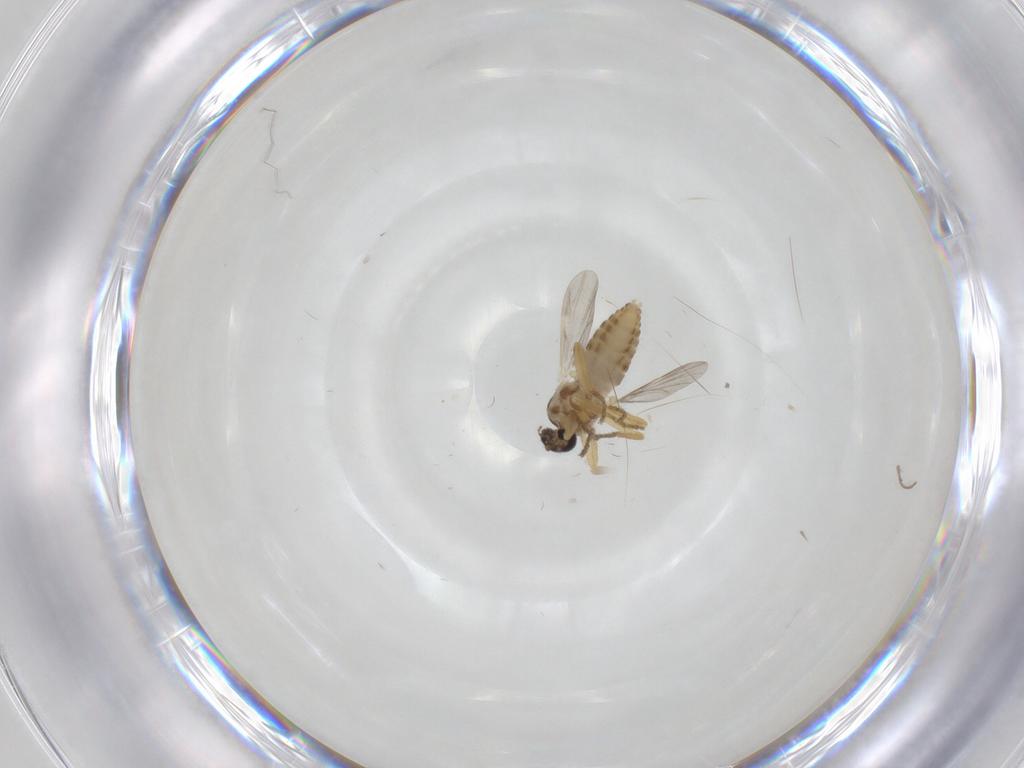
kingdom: Animalia
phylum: Arthropoda
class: Insecta
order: Diptera
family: Ceratopogonidae
